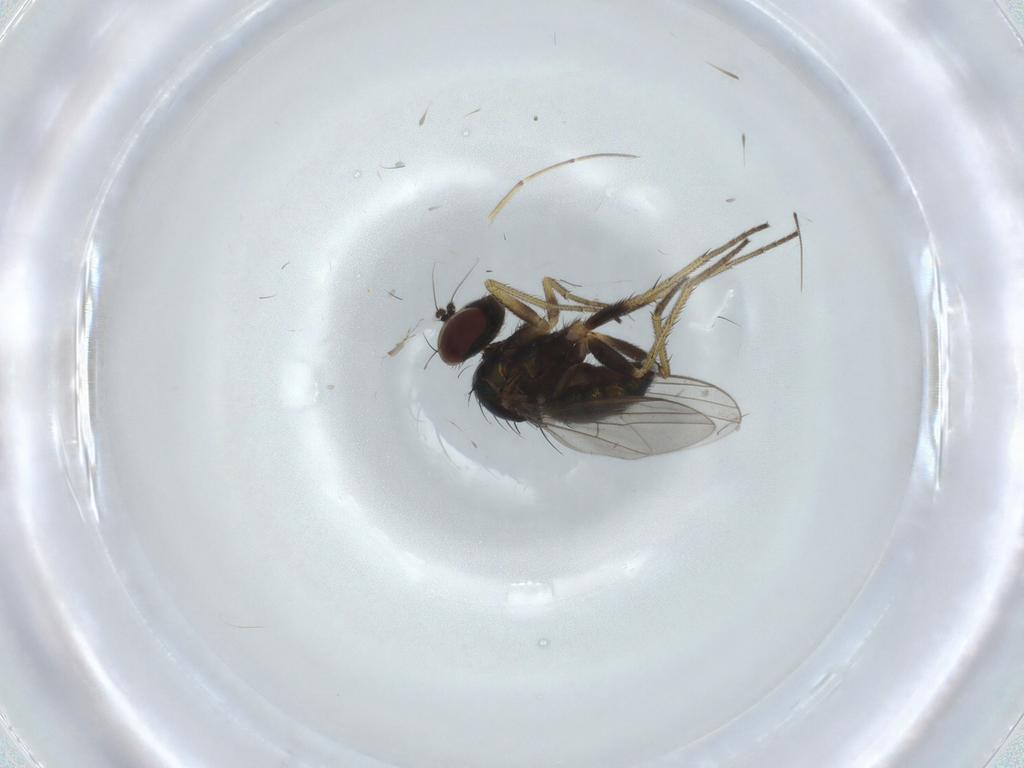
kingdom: Animalia
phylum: Arthropoda
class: Insecta
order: Diptera
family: Dolichopodidae
